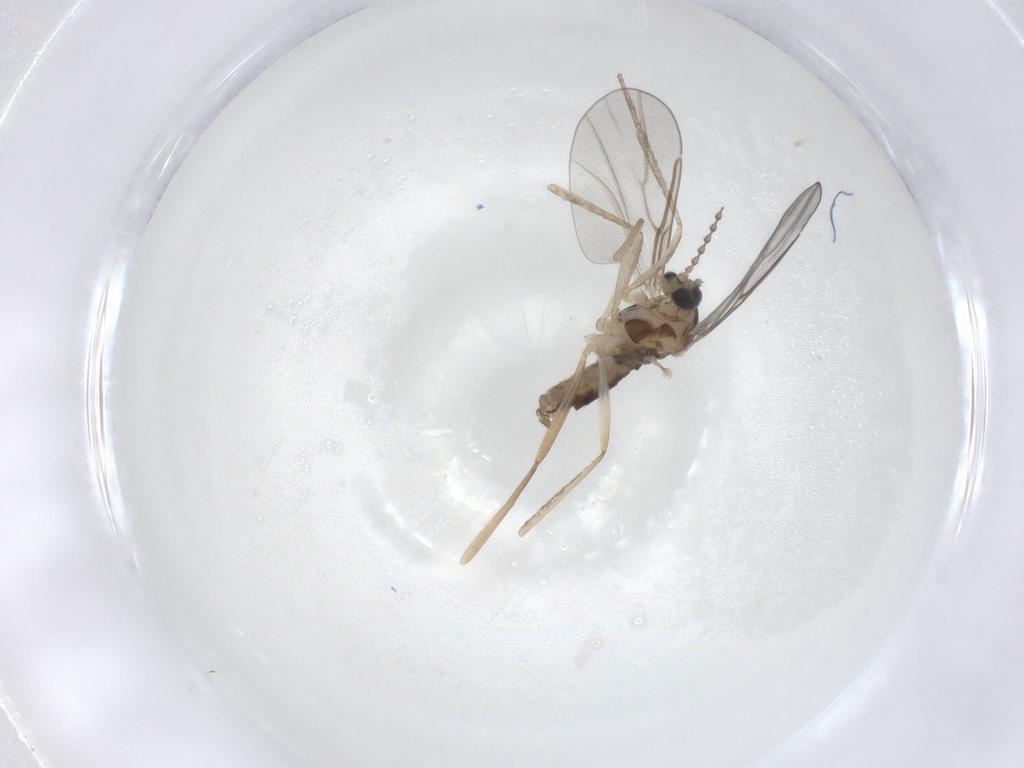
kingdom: Animalia
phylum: Arthropoda
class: Insecta
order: Diptera
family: Cecidomyiidae
